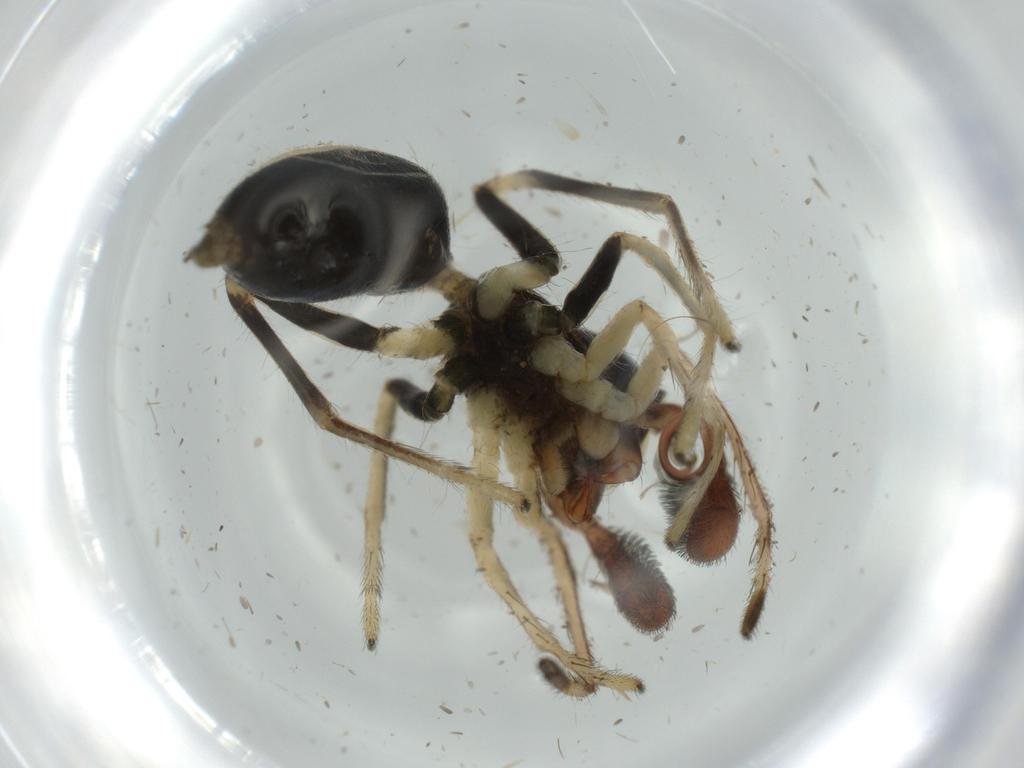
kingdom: Animalia
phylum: Arthropoda
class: Arachnida
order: Araneae
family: Salticidae
